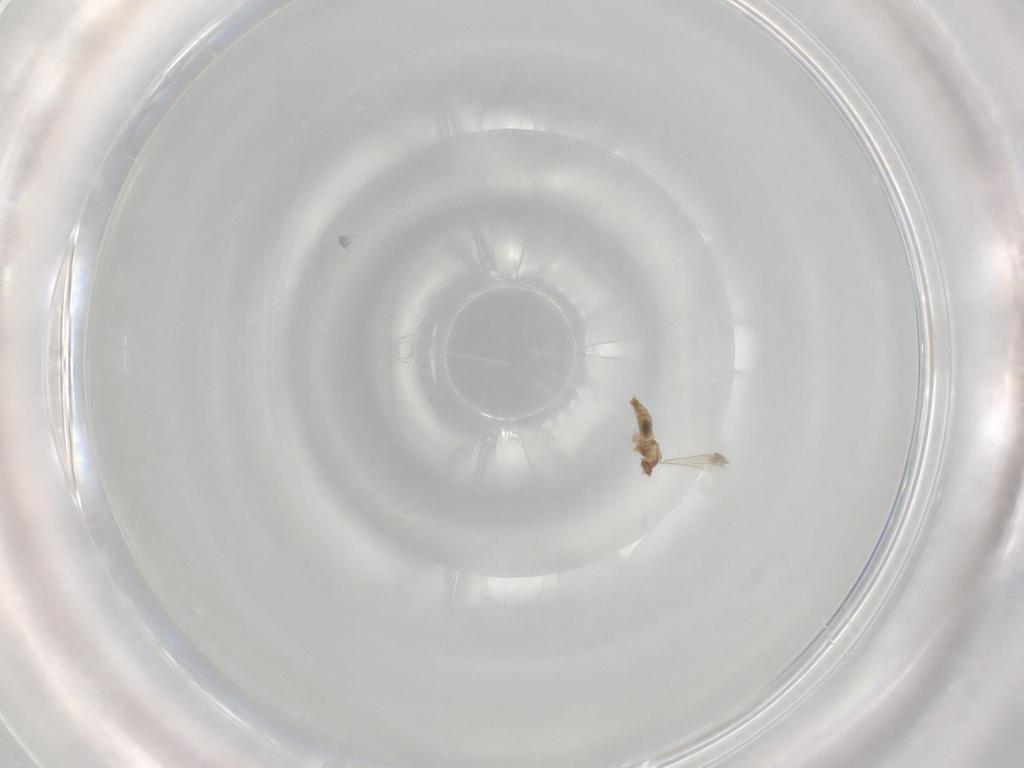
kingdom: Animalia
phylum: Arthropoda
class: Insecta
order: Diptera
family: Cecidomyiidae
